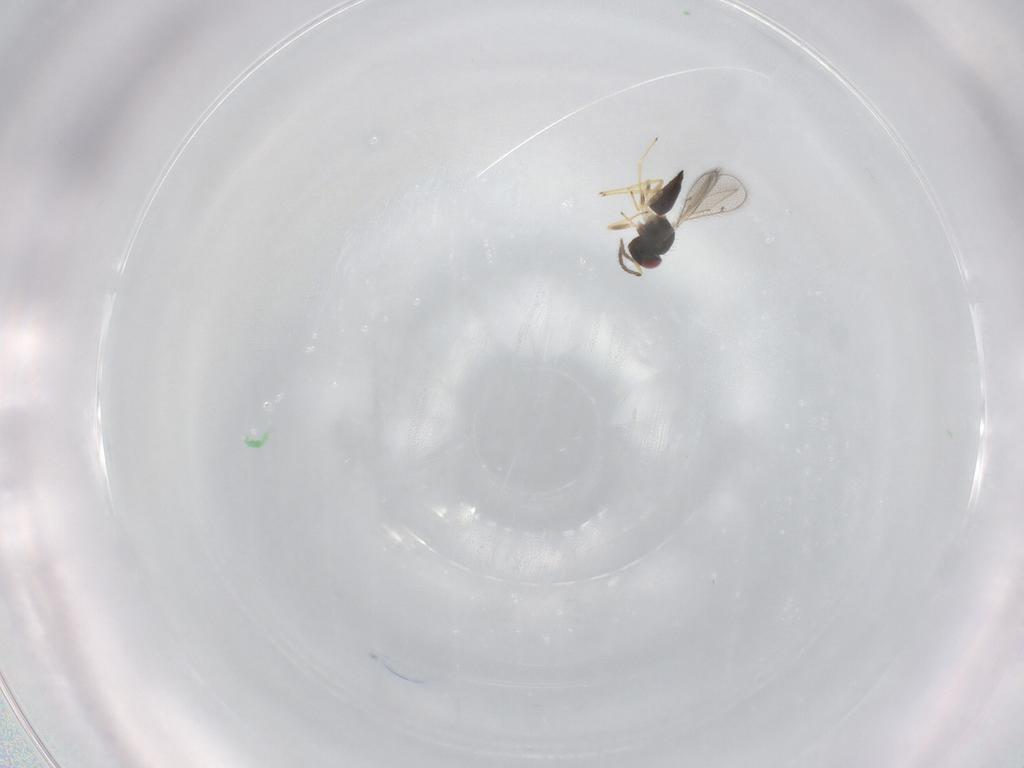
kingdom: Animalia
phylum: Arthropoda
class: Insecta
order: Hymenoptera
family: Eulophidae
